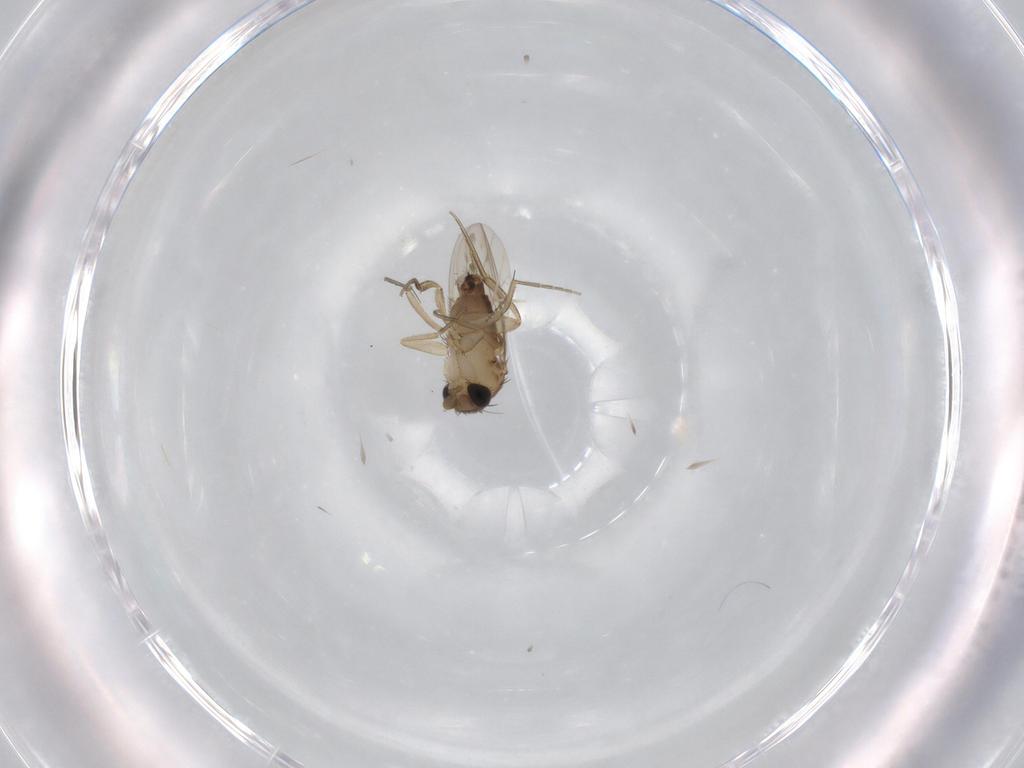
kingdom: Animalia
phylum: Arthropoda
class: Insecta
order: Diptera
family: Cecidomyiidae
